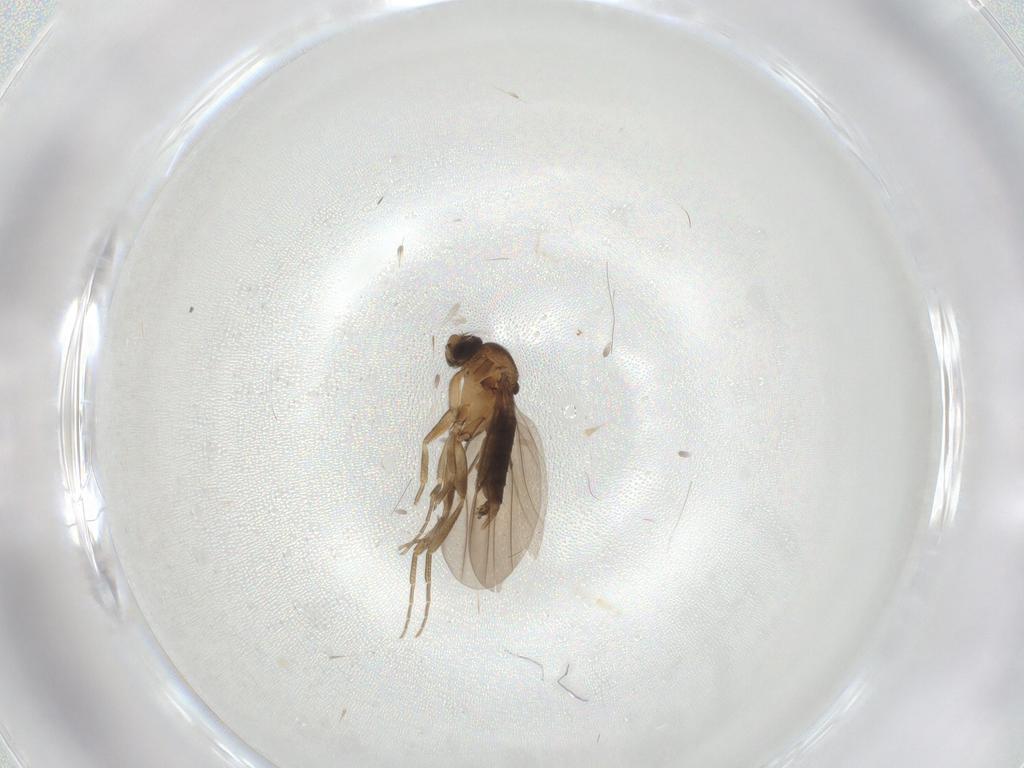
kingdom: Animalia
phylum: Arthropoda
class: Insecta
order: Diptera
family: Phoridae
